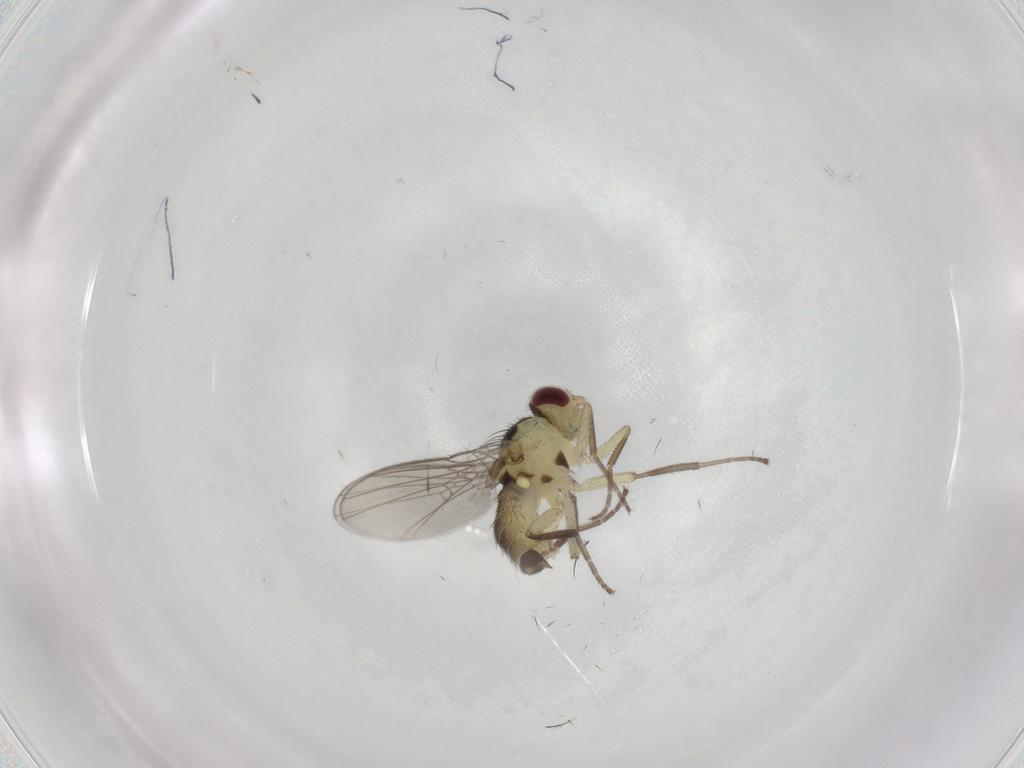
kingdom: Animalia
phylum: Arthropoda
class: Insecta
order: Diptera
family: Agromyzidae
